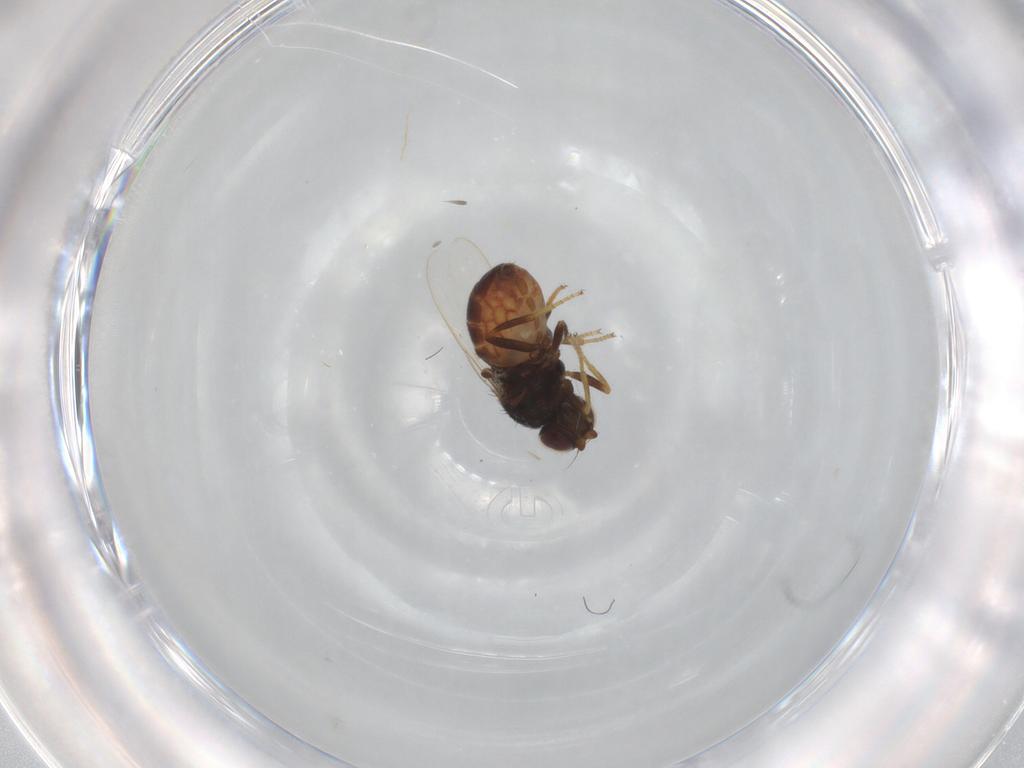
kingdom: Animalia
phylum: Arthropoda
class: Insecta
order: Diptera
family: Chloropidae
